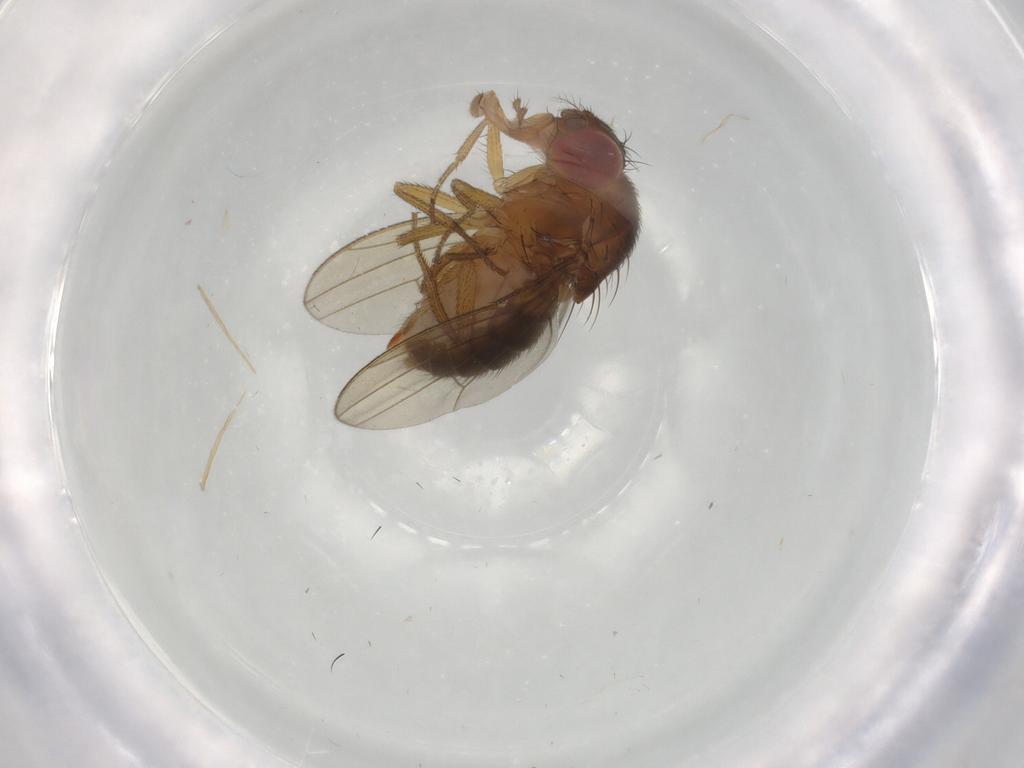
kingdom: Animalia
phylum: Arthropoda
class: Insecta
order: Diptera
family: Drosophilidae
